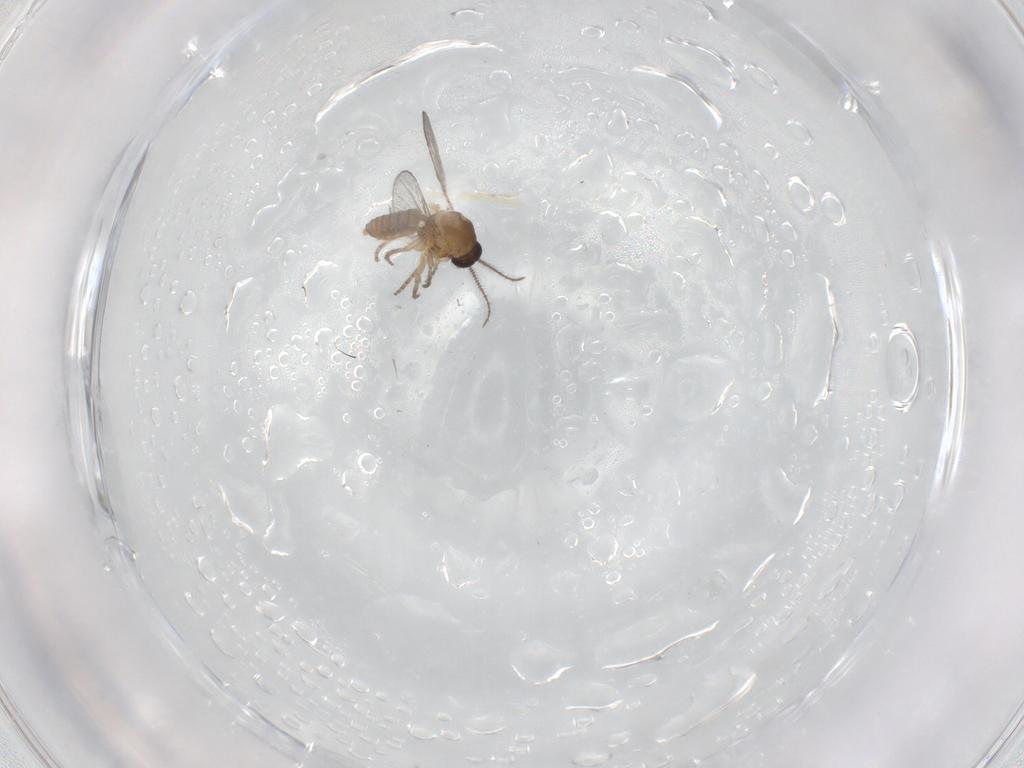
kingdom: Animalia
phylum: Arthropoda
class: Insecta
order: Diptera
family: Ceratopogonidae
